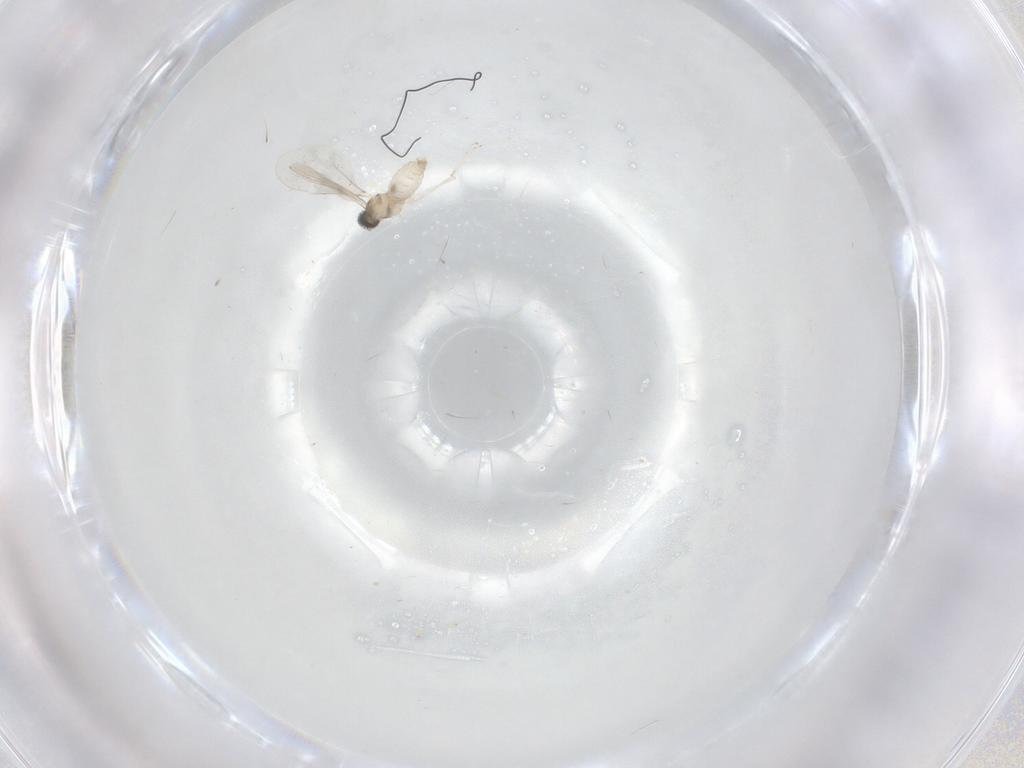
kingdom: Animalia
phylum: Arthropoda
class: Insecta
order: Diptera
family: Cecidomyiidae
